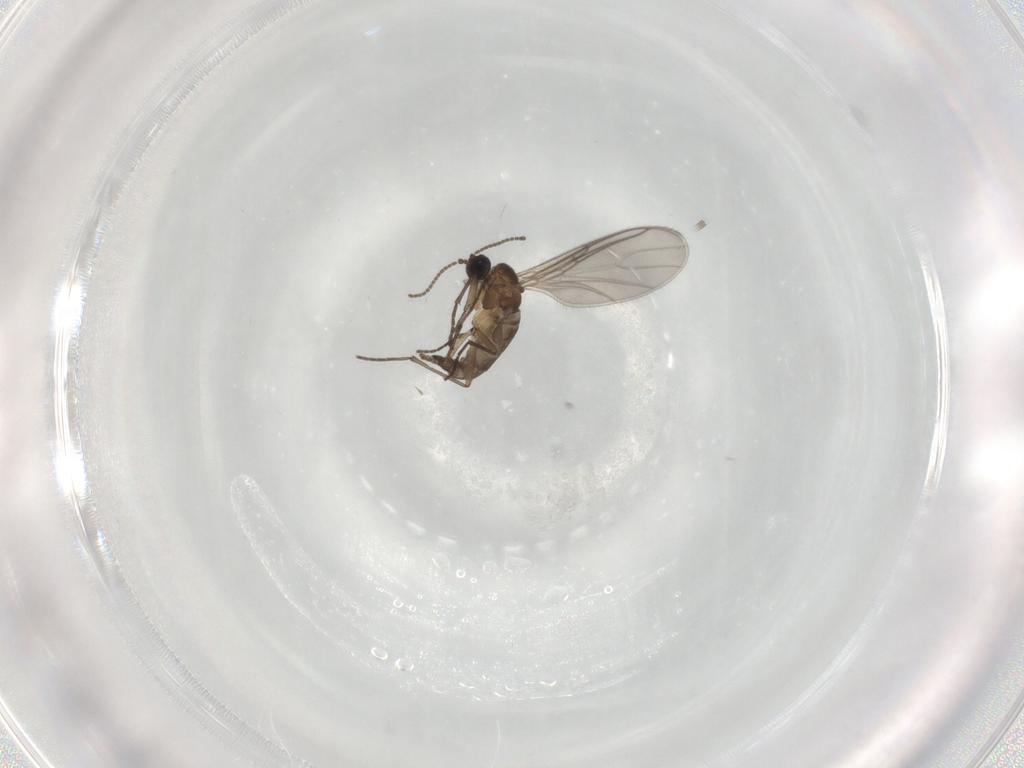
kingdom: Animalia
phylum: Arthropoda
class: Insecta
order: Diptera
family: Sciaridae
